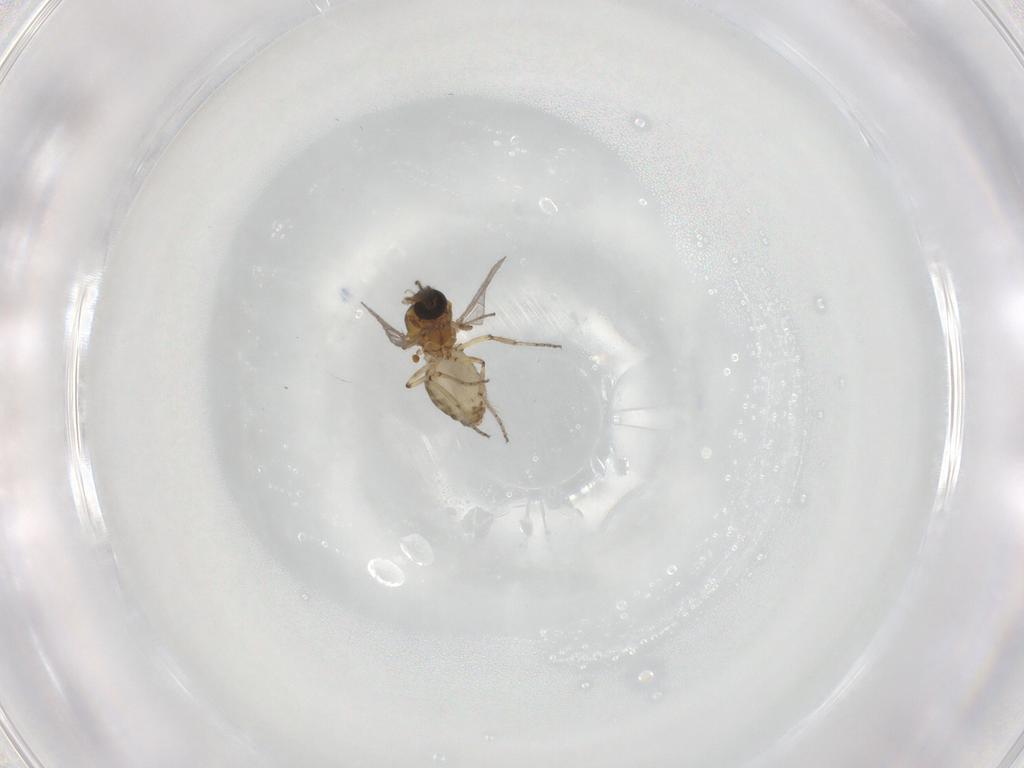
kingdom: Animalia
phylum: Arthropoda
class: Insecta
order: Diptera
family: Ceratopogonidae
